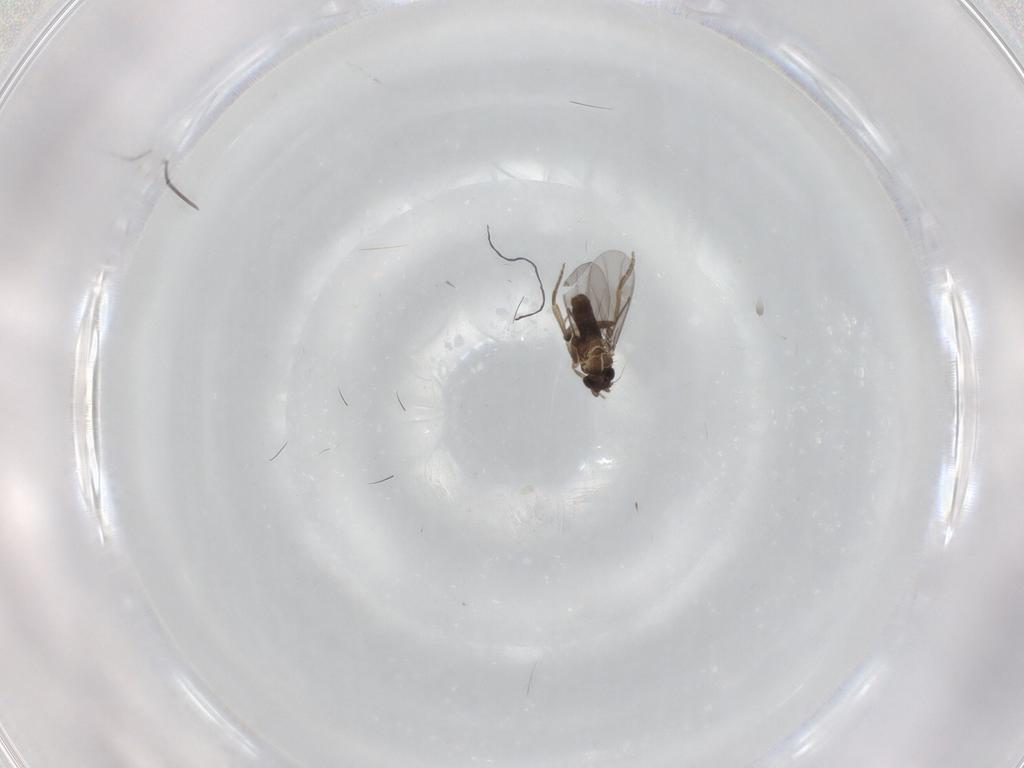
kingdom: Animalia
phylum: Arthropoda
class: Insecta
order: Diptera
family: Cecidomyiidae
